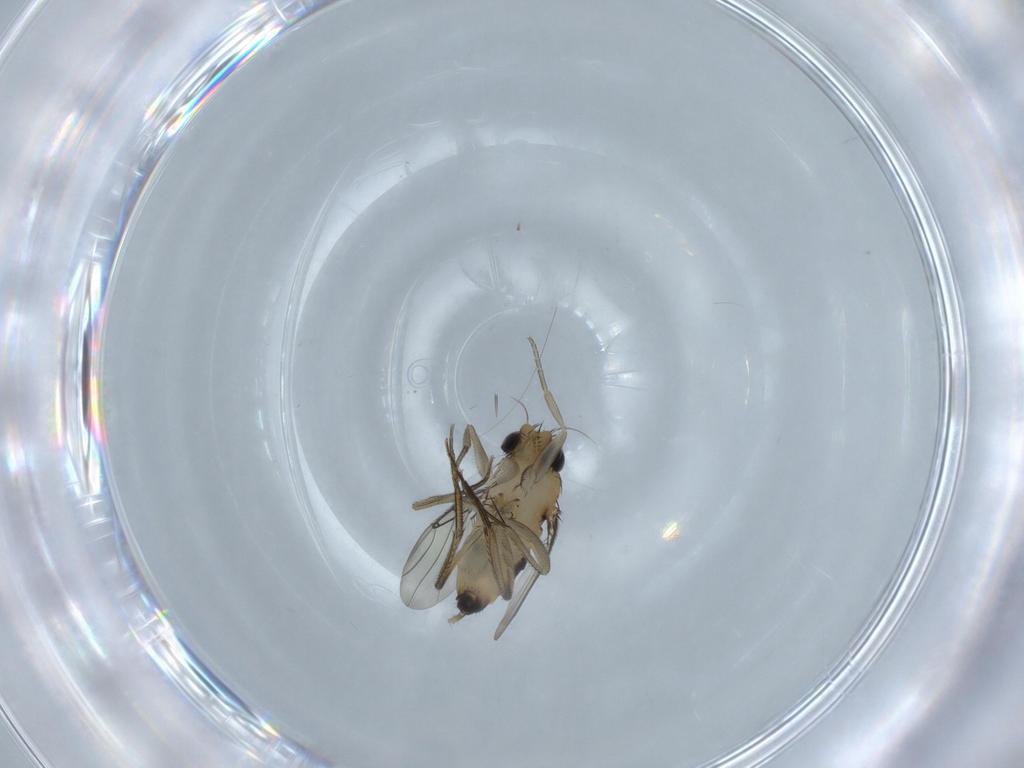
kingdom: Animalia
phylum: Arthropoda
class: Insecta
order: Diptera
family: Phoridae
